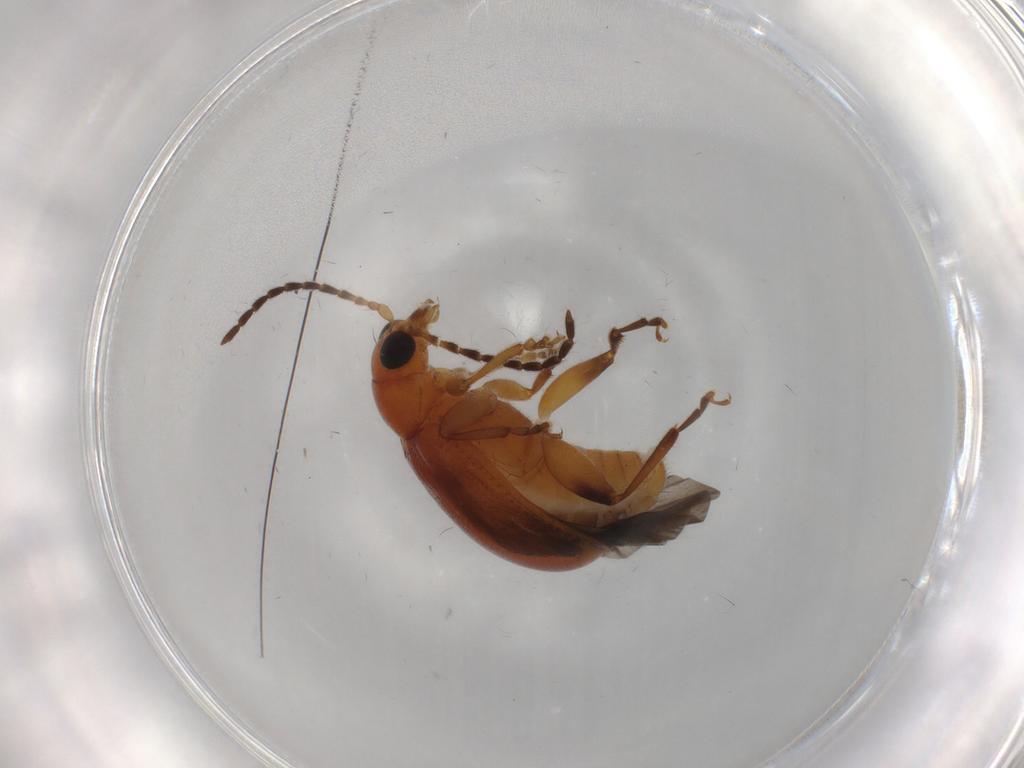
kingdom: Animalia
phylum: Arthropoda
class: Insecta
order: Coleoptera
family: Chrysomelidae
